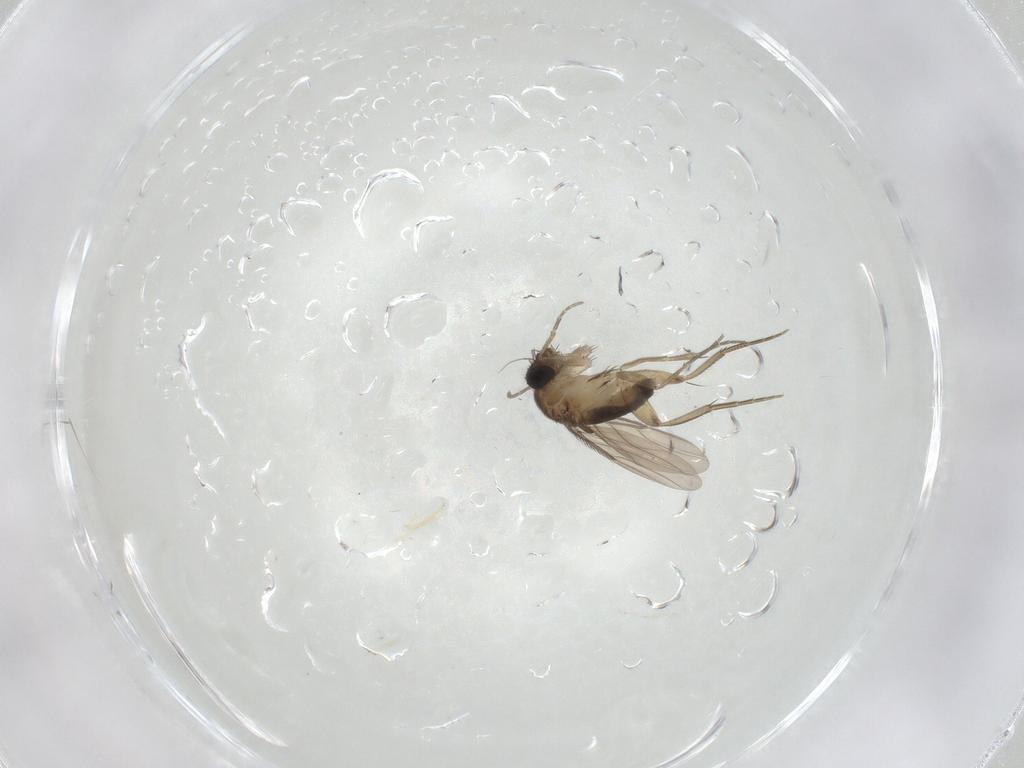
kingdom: Animalia
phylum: Arthropoda
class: Insecta
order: Diptera
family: Phoridae
